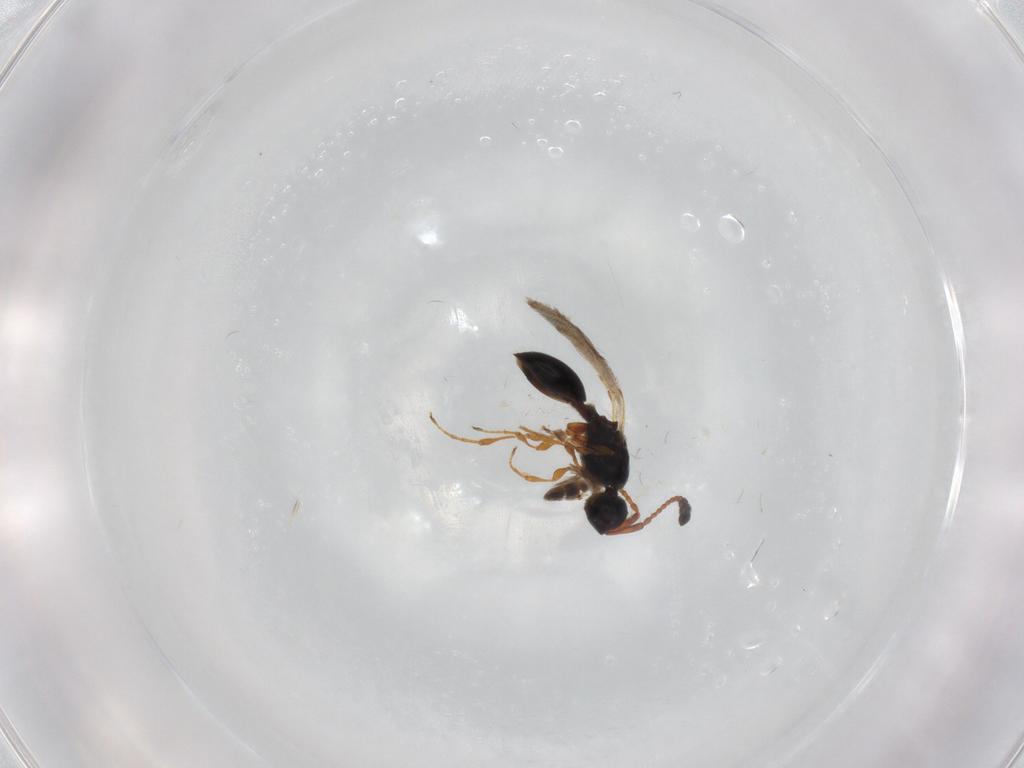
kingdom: Animalia
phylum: Arthropoda
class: Insecta
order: Hymenoptera
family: Diapriidae
